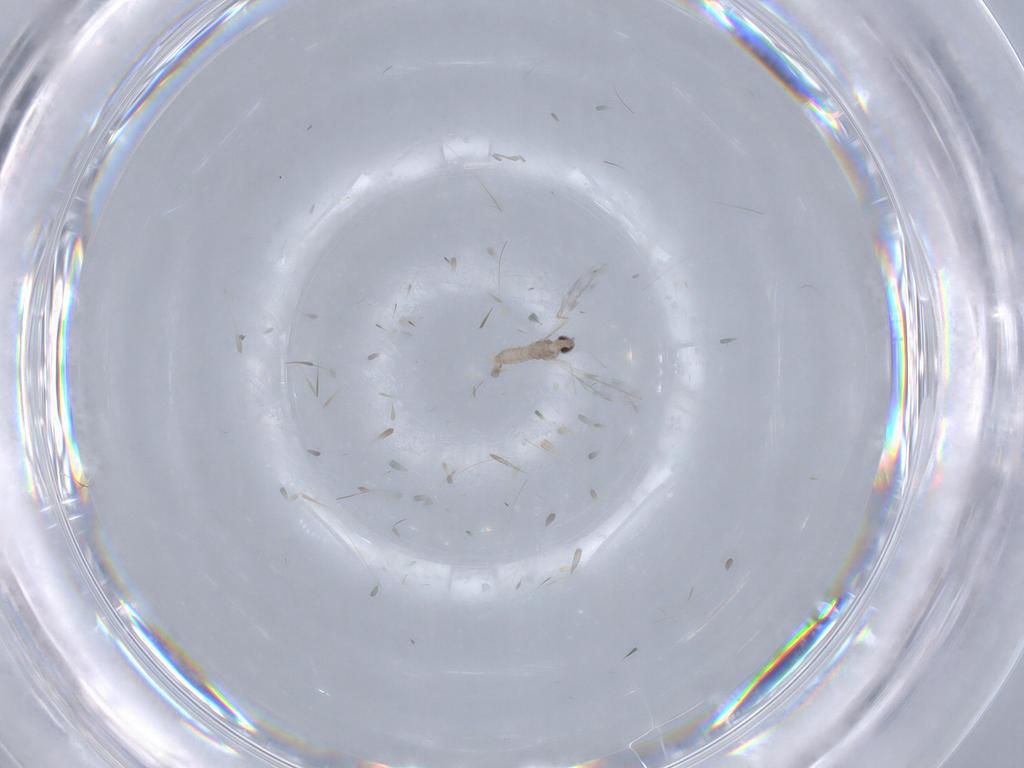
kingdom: Animalia
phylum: Arthropoda
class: Insecta
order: Diptera
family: Cecidomyiidae
